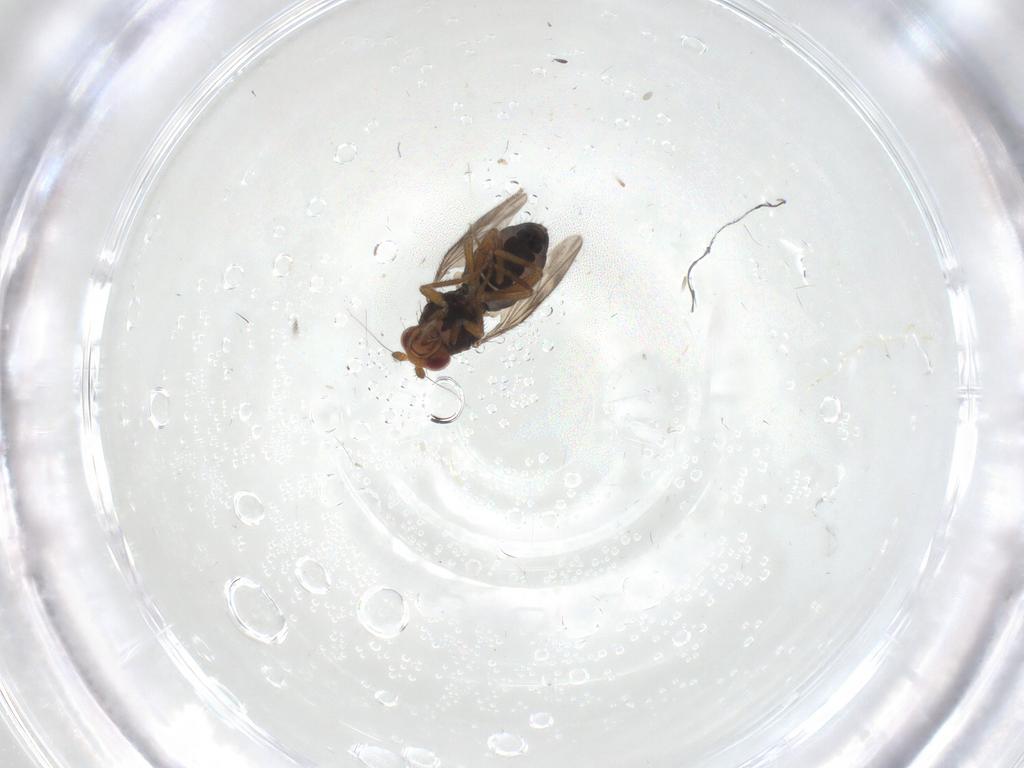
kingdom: Animalia
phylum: Arthropoda
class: Insecta
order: Diptera
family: Sphaeroceridae
